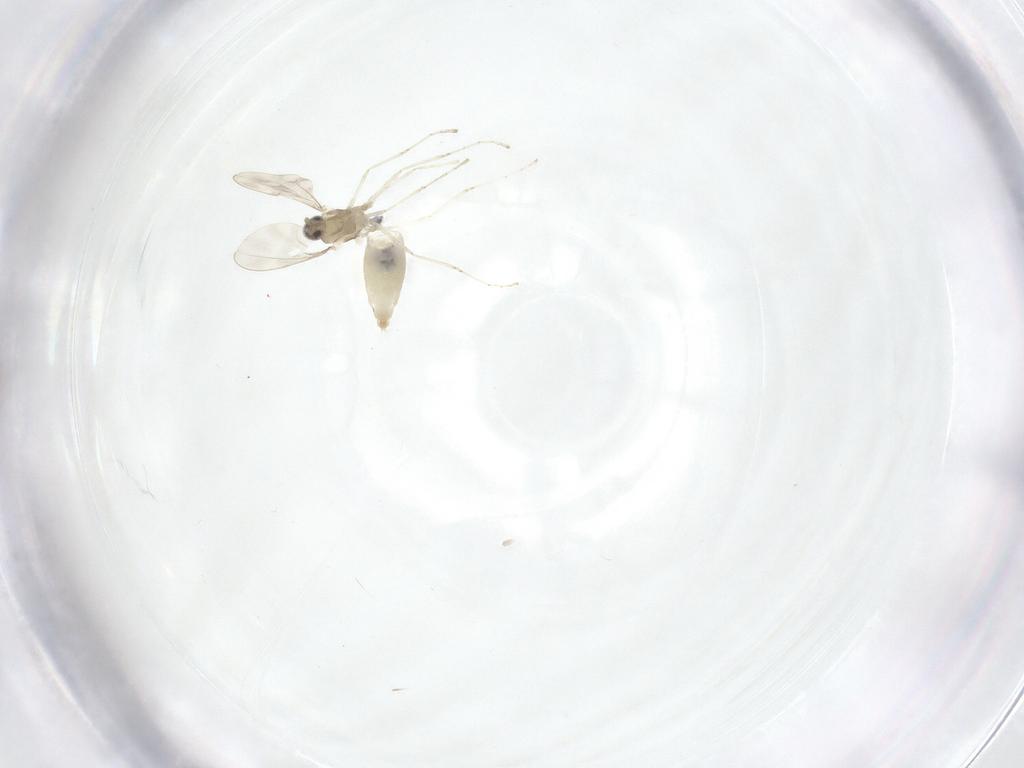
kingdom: Animalia
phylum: Arthropoda
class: Insecta
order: Diptera
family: Cecidomyiidae
